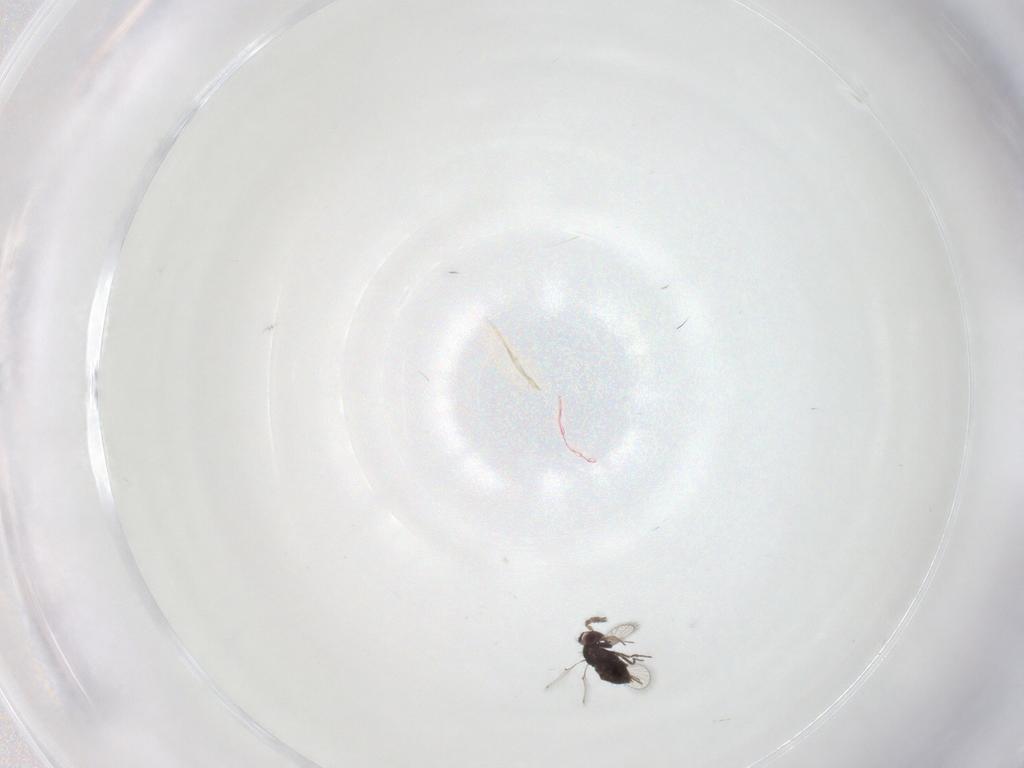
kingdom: Animalia
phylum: Arthropoda
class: Insecta
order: Hymenoptera
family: Trichogrammatidae
